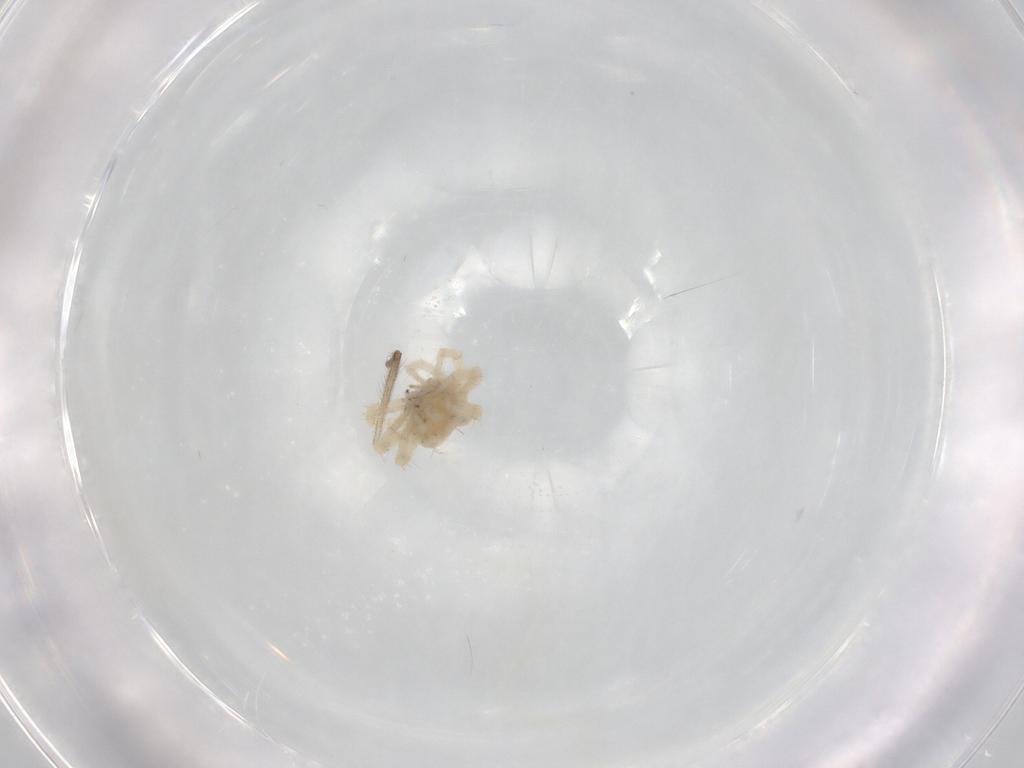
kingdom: Animalia
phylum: Arthropoda
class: Arachnida
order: Trombidiformes
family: Anystidae
